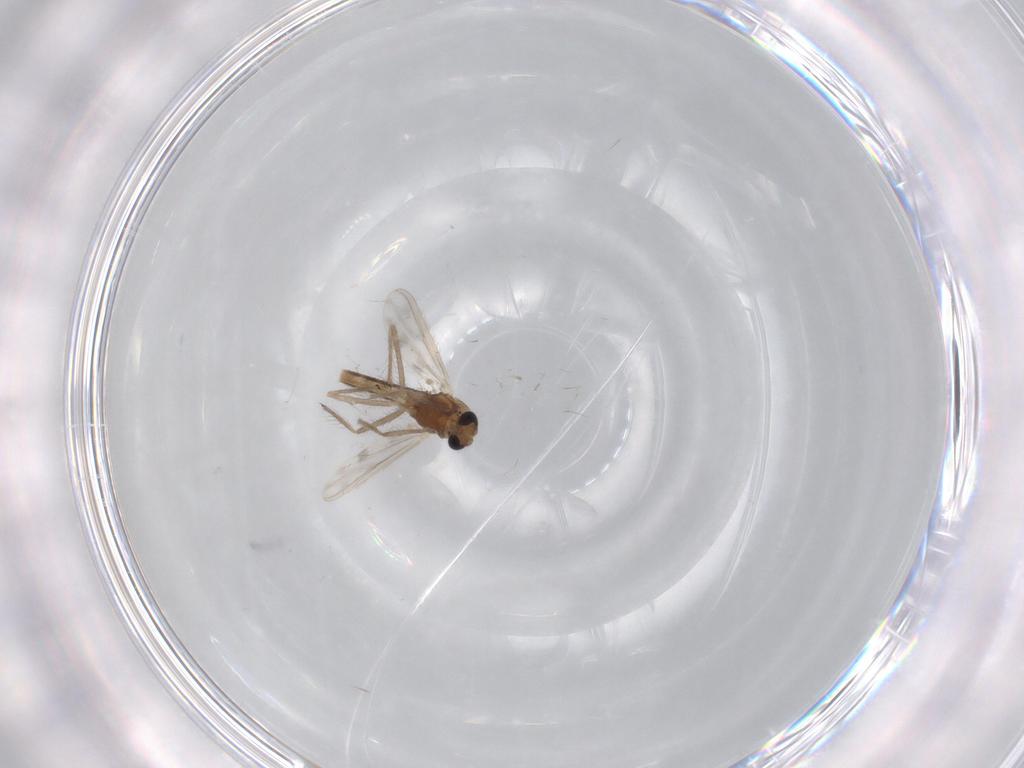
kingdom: Animalia
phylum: Arthropoda
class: Insecta
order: Diptera
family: Chironomidae
